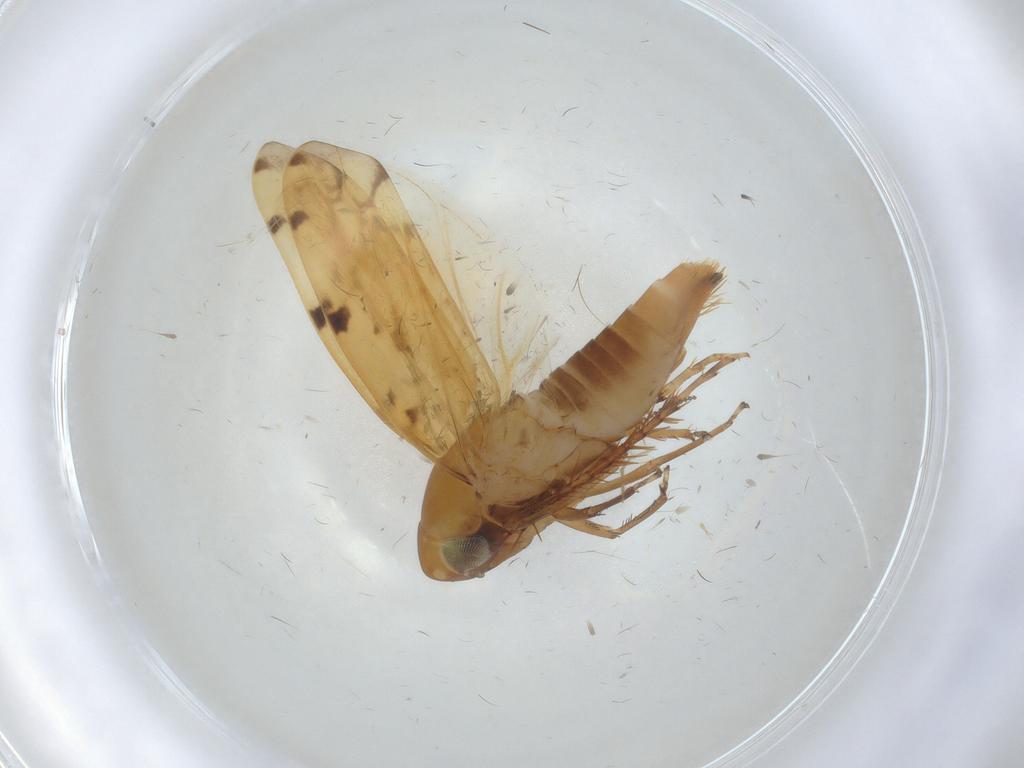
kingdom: Animalia
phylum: Arthropoda
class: Insecta
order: Hemiptera
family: Cicadellidae
